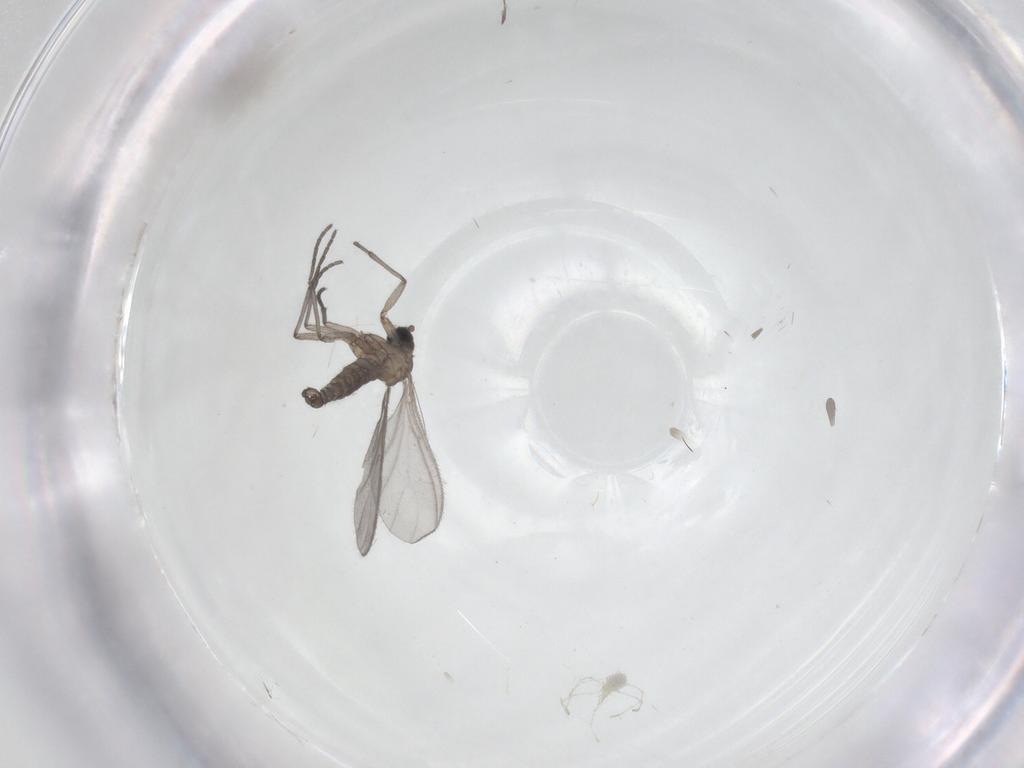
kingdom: Animalia
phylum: Arthropoda
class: Insecta
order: Diptera
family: Sciaridae
